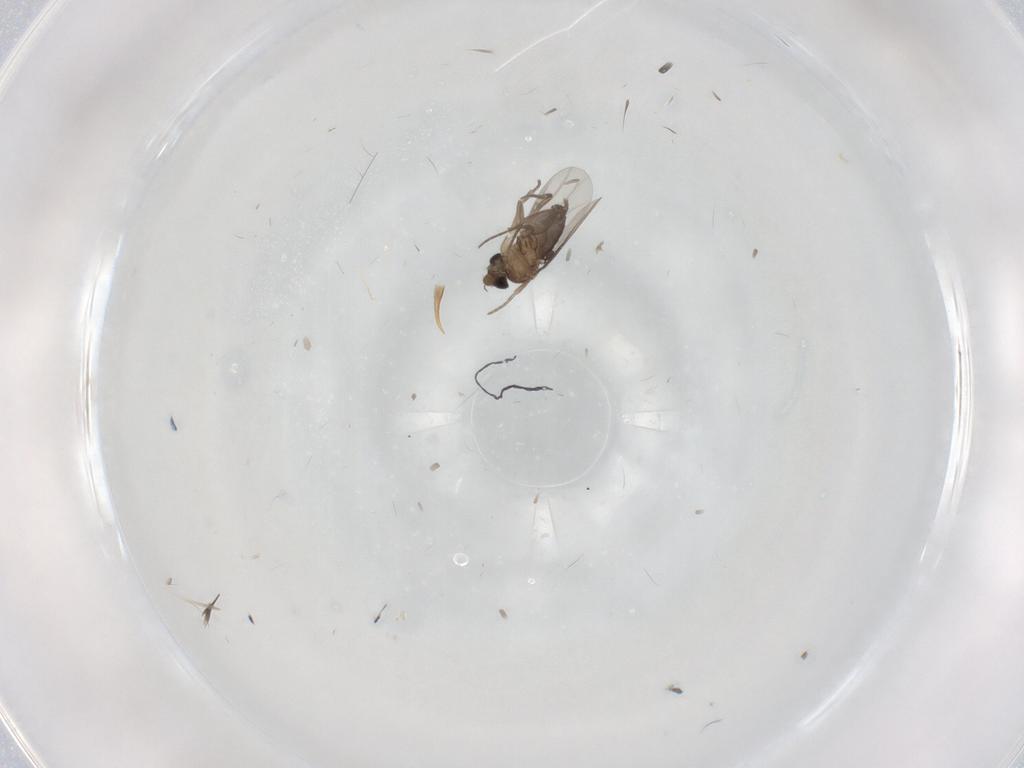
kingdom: Animalia
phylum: Arthropoda
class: Insecta
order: Diptera
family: Phoridae
